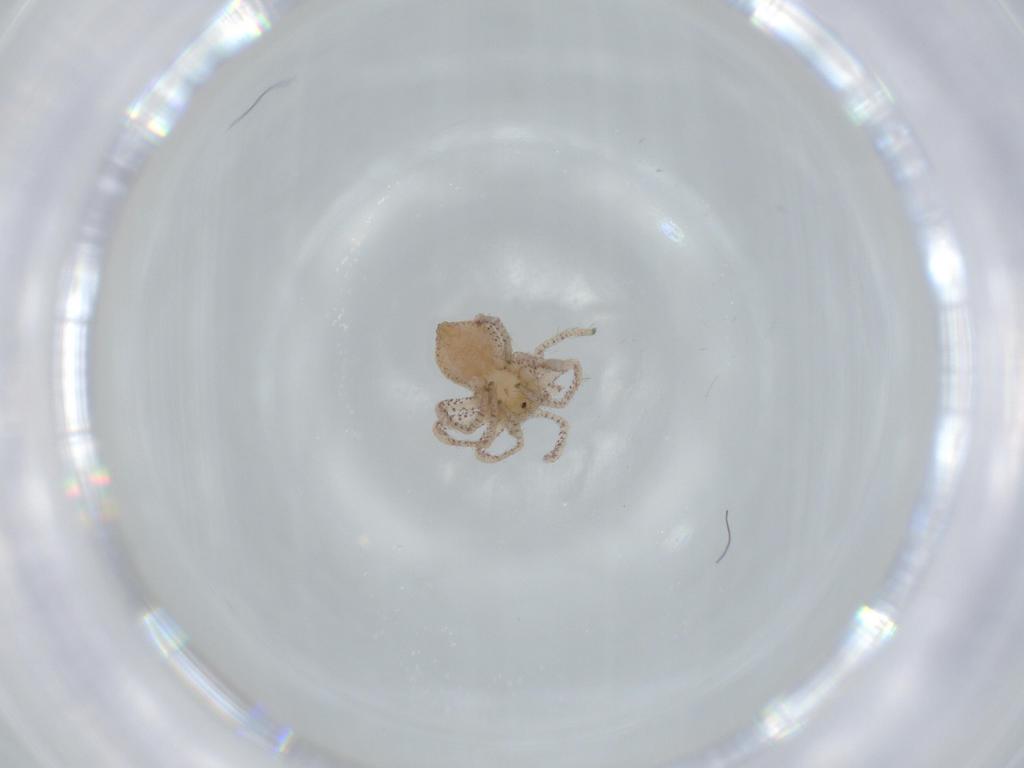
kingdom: Animalia
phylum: Arthropoda
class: Arachnida
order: Araneae
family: Philodromidae
